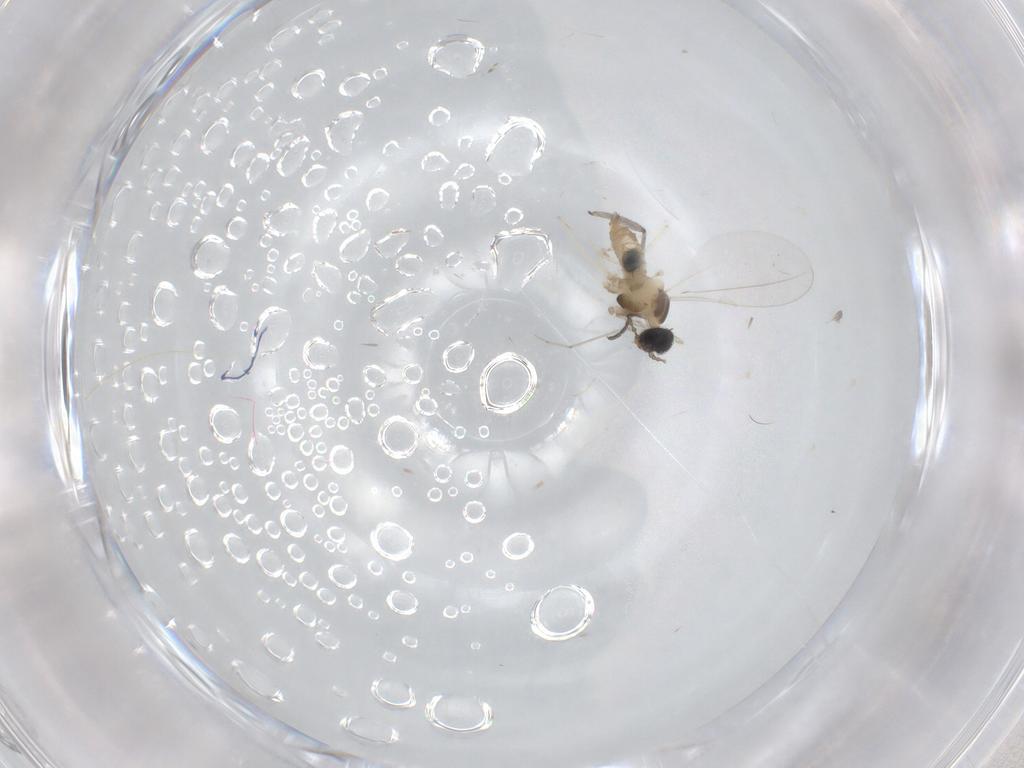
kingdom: Animalia
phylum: Arthropoda
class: Insecta
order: Diptera
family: Sciaridae
